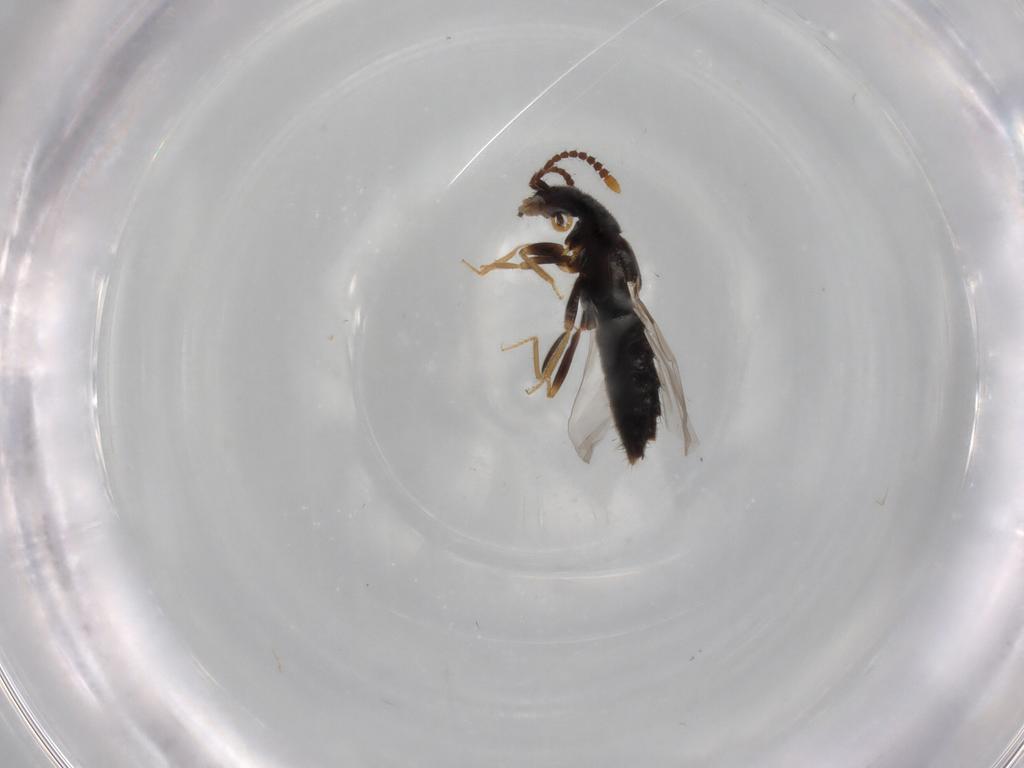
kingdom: Animalia
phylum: Arthropoda
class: Insecta
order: Coleoptera
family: Staphylinidae
